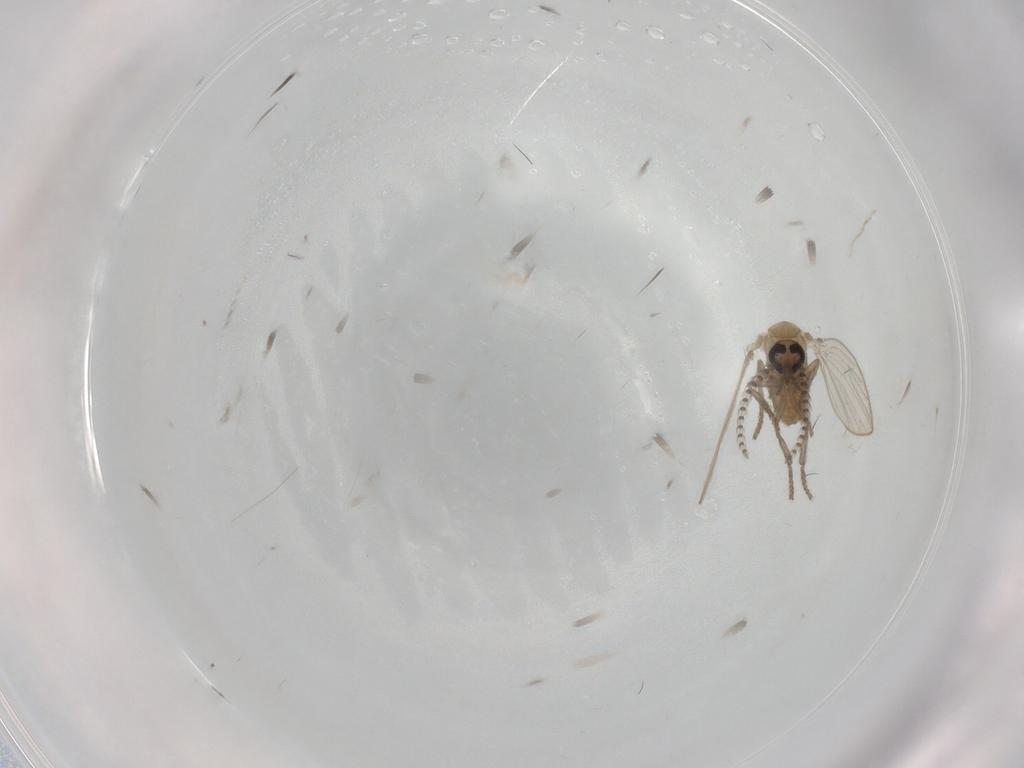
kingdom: Animalia
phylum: Arthropoda
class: Insecta
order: Diptera
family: Psychodidae
